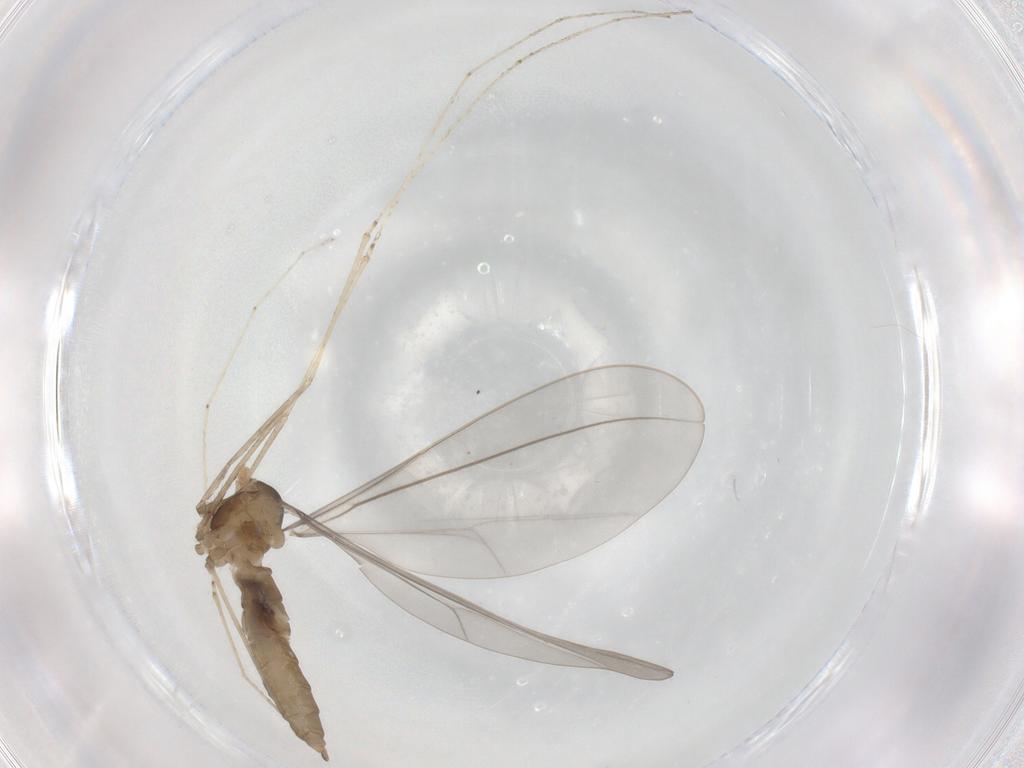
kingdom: Animalia
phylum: Arthropoda
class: Insecta
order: Diptera
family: Cecidomyiidae
